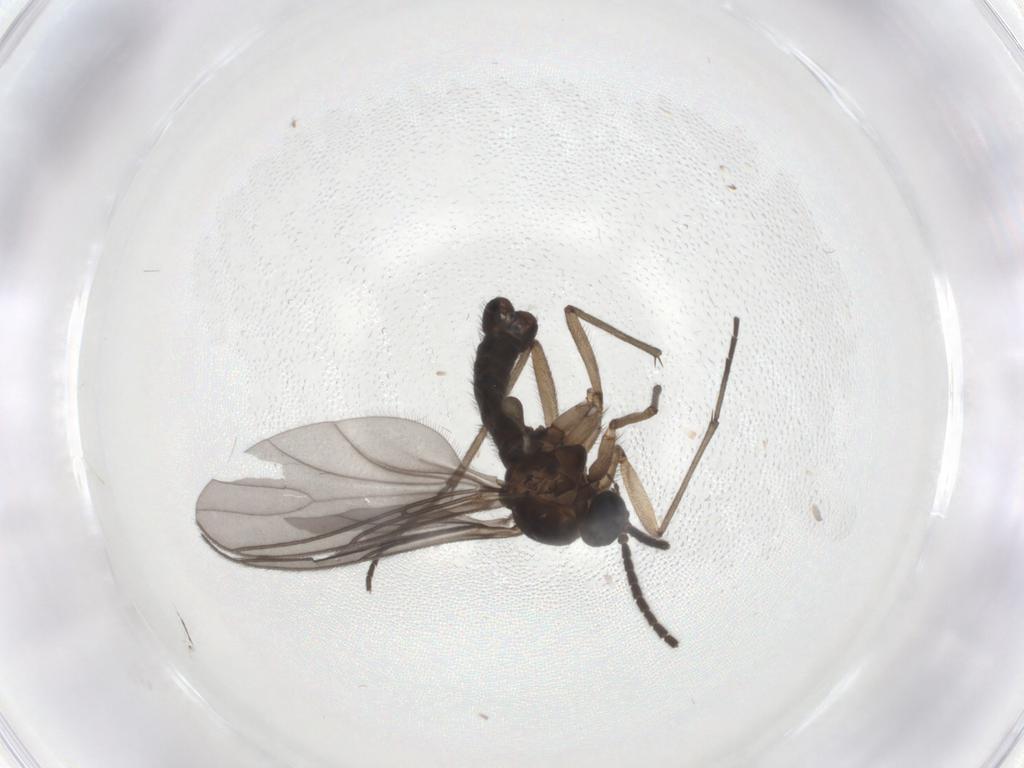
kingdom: Animalia
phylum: Arthropoda
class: Insecta
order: Diptera
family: Sciaridae
